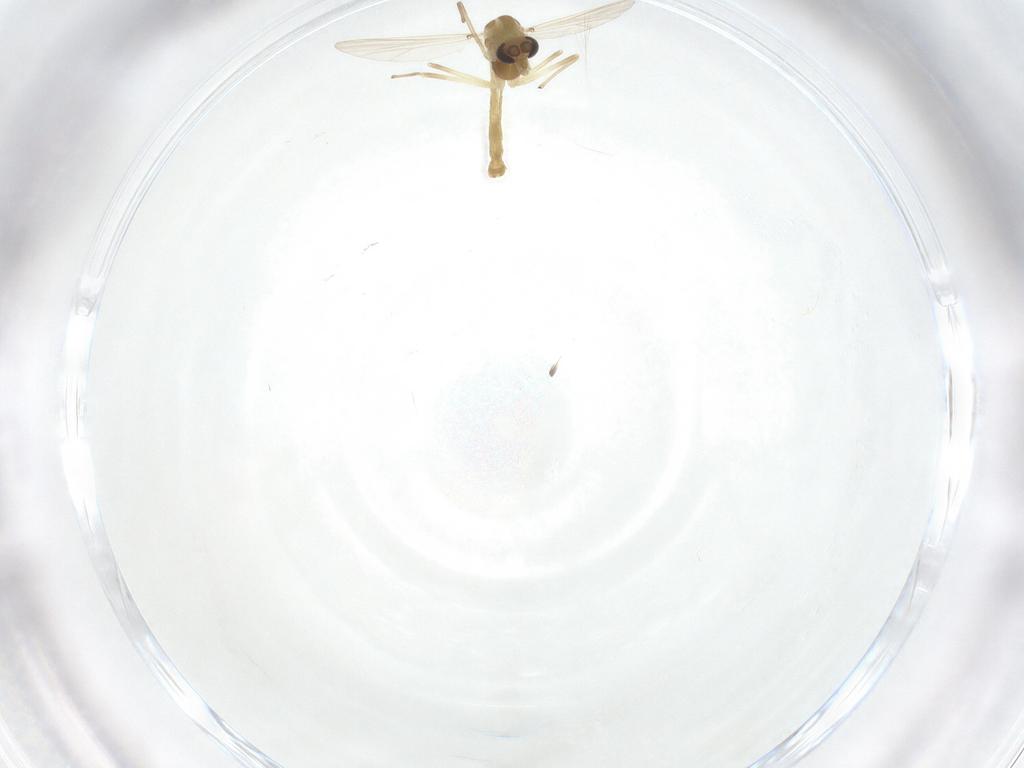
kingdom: Animalia
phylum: Arthropoda
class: Insecta
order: Diptera
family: Chironomidae
